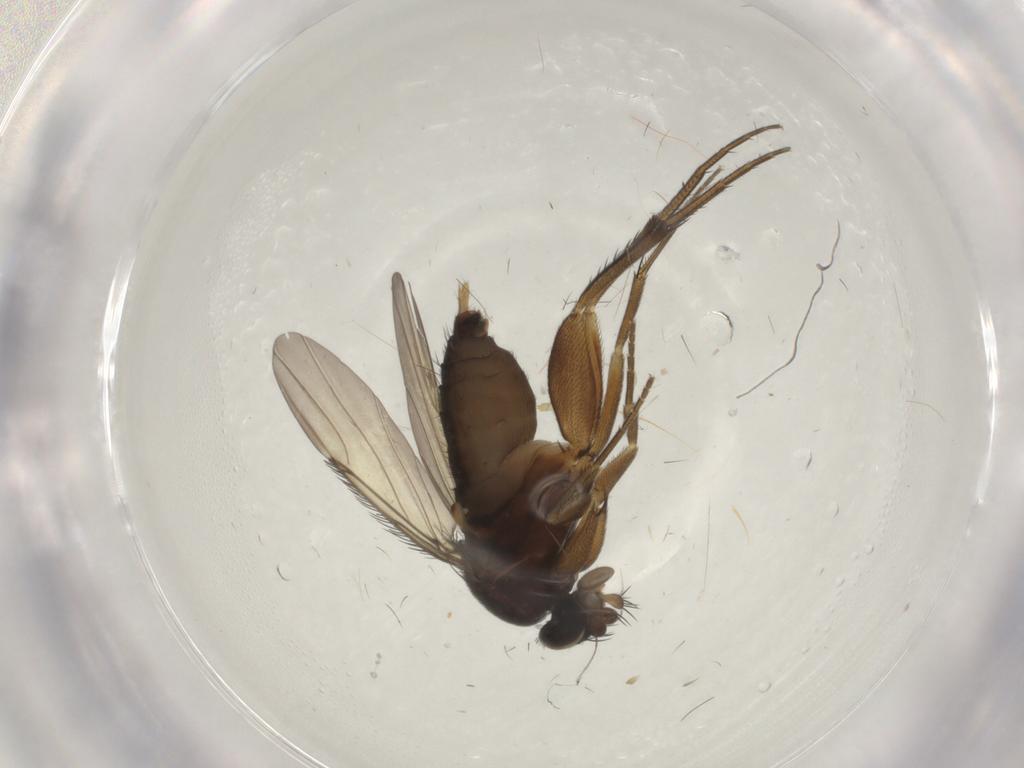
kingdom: Animalia
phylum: Arthropoda
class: Insecta
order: Diptera
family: Phoridae
